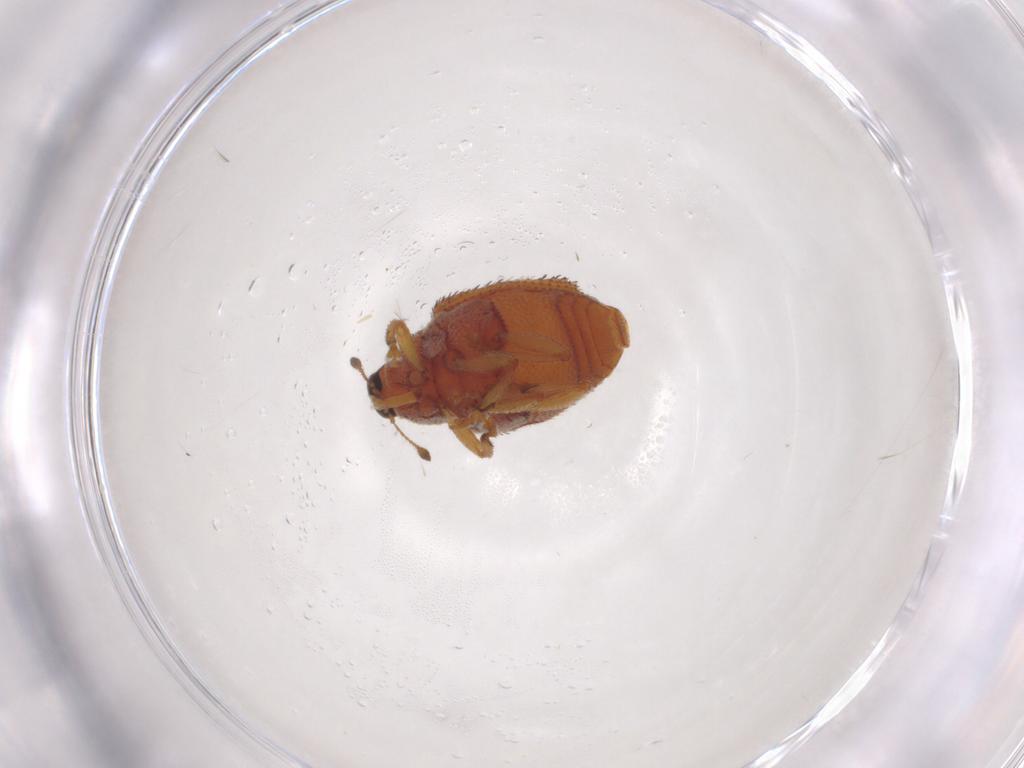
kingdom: Animalia
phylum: Arthropoda
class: Insecta
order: Coleoptera
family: Curculionidae
